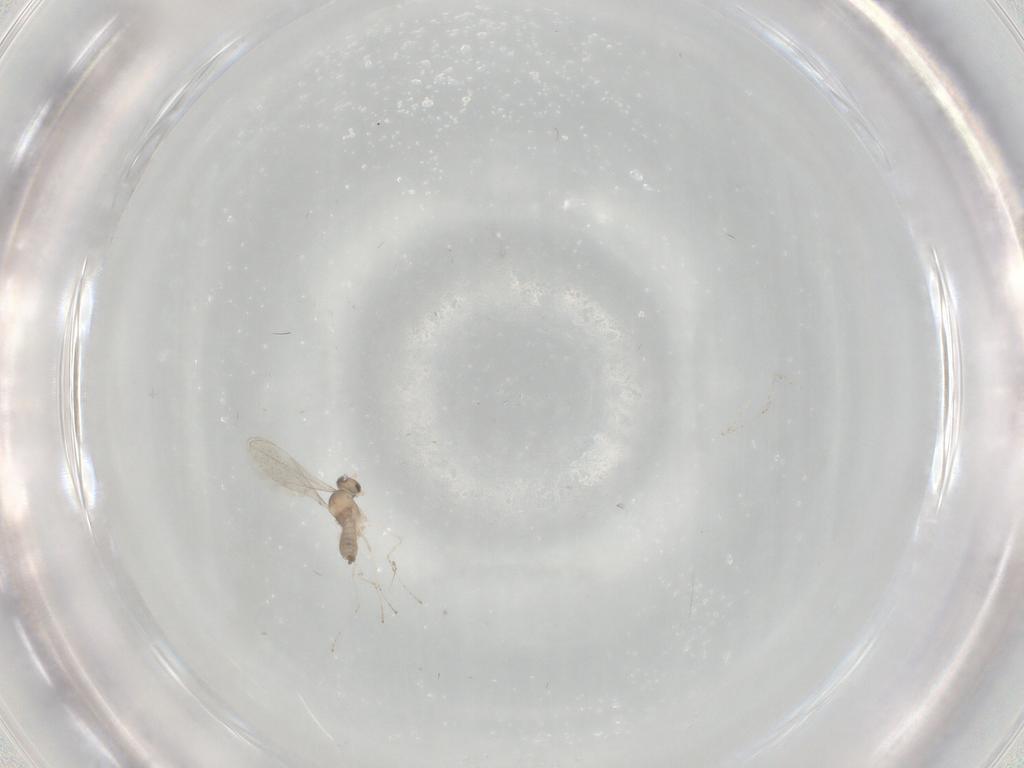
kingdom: Animalia
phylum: Arthropoda
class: Insecta
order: Diptera
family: Cecidomyiidae
